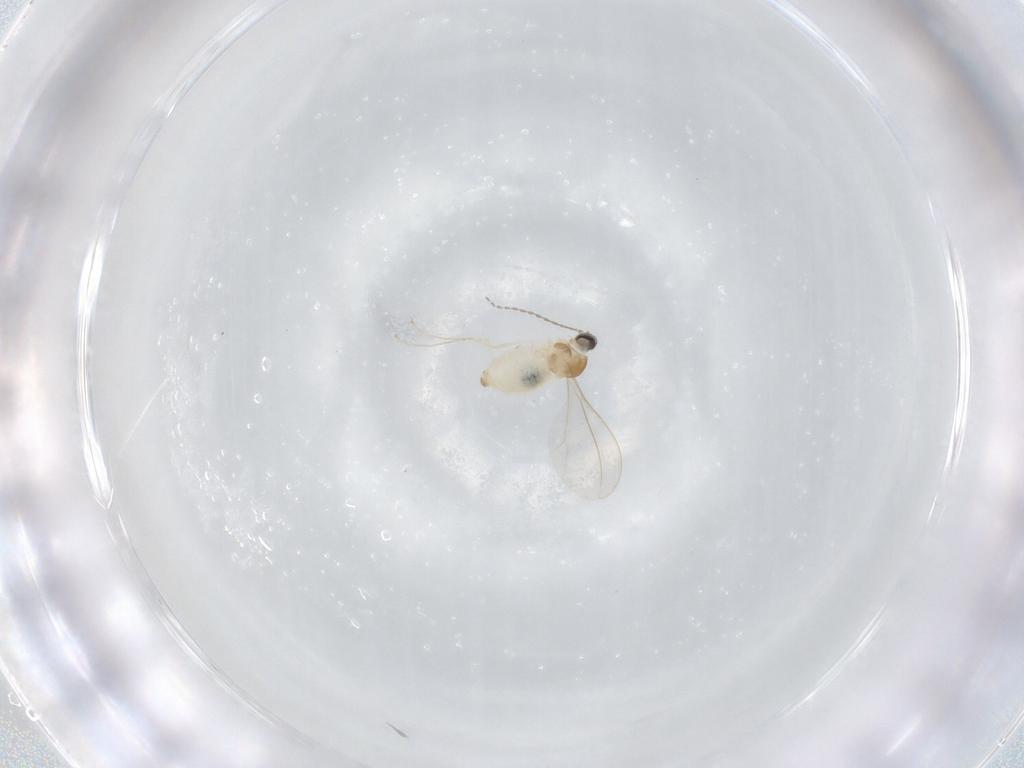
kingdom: Animalia
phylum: Arthropoda
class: Insecta
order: Diptera
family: Cecidomyiidae
